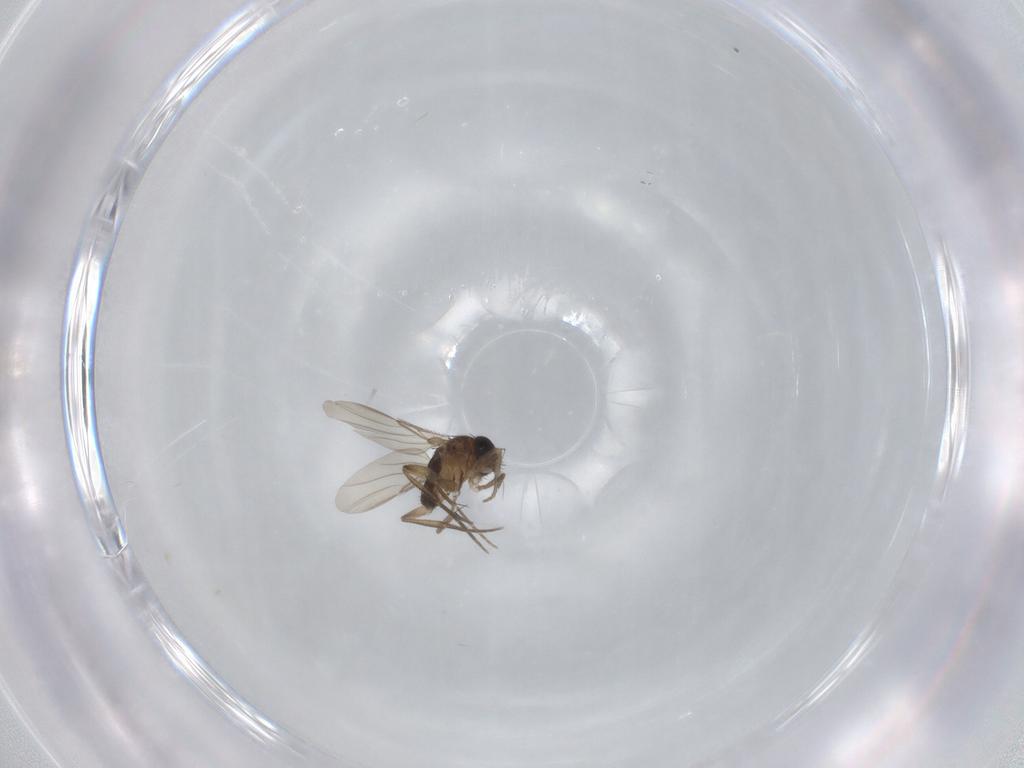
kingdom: Animalia
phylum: Arthropoda
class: Insecta
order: Diptera
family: Phoridae
